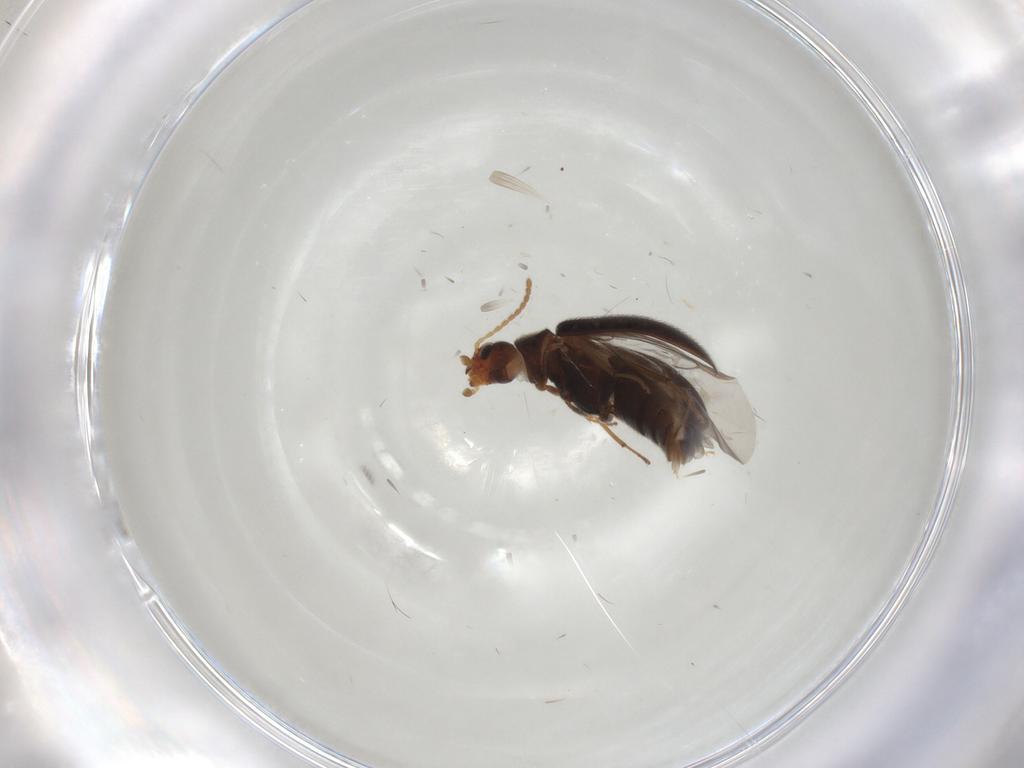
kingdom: Animalia
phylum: Arthropoda
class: Insecta
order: Coleoptera
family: Melandryidae
